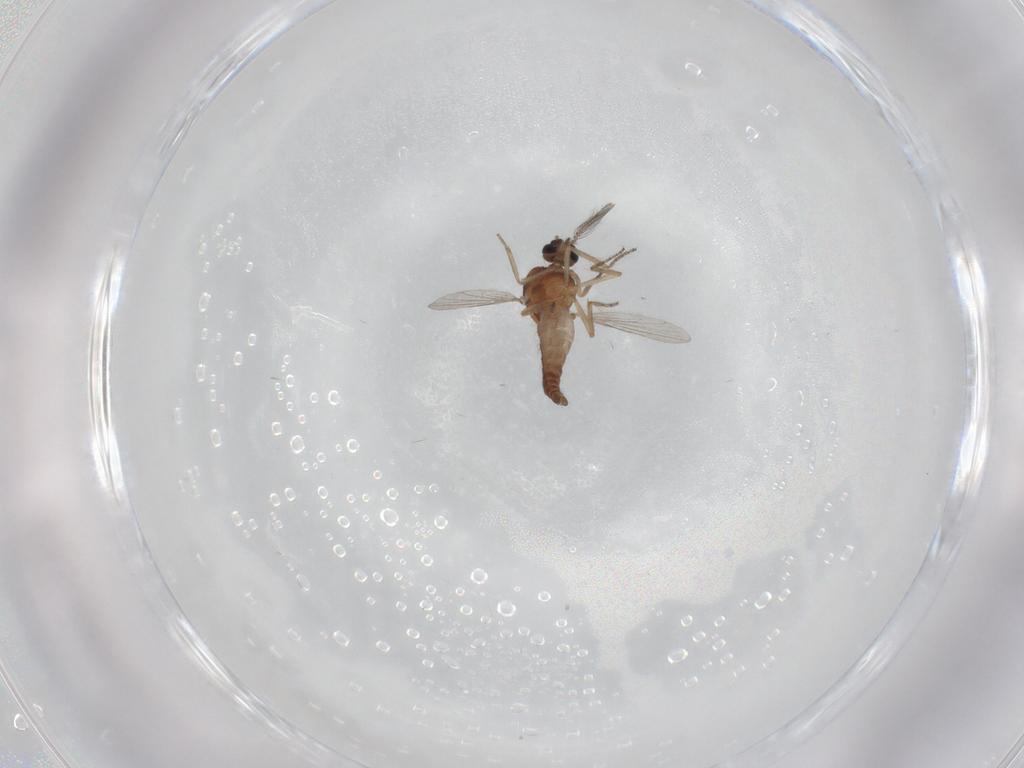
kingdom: Animalia
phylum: Arthropoda
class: Insecta
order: Diptera
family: Ceratopogonidae
